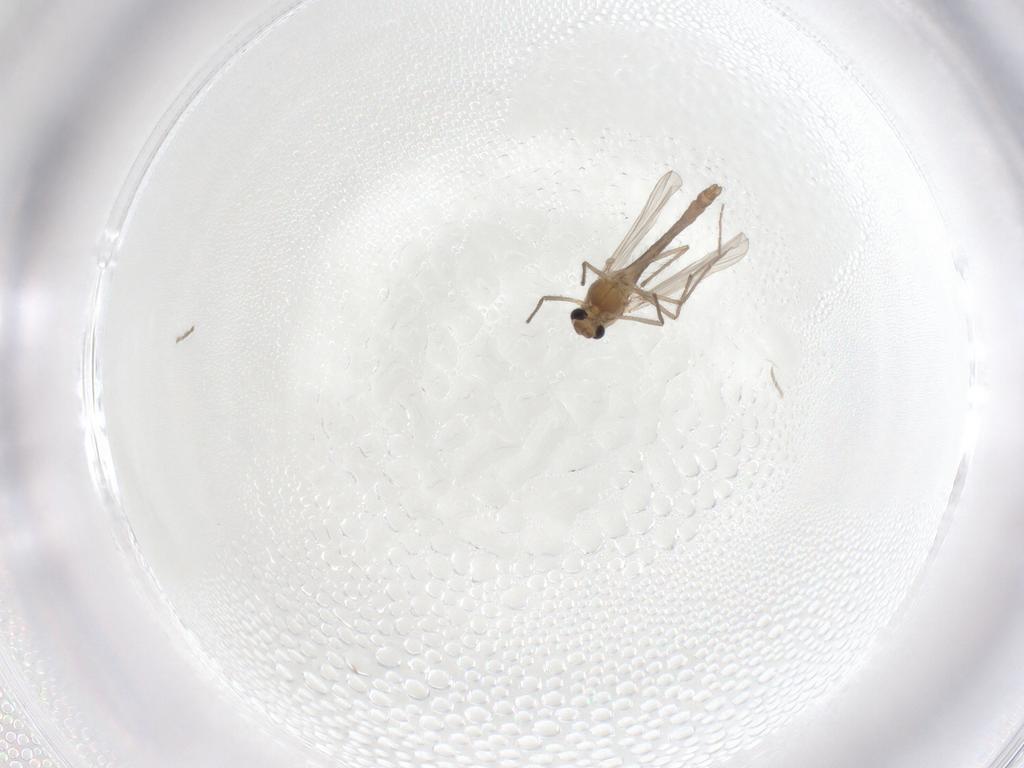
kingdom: Animalia
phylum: Arthropoda
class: Insecta
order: Diptera
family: Chironomidae
